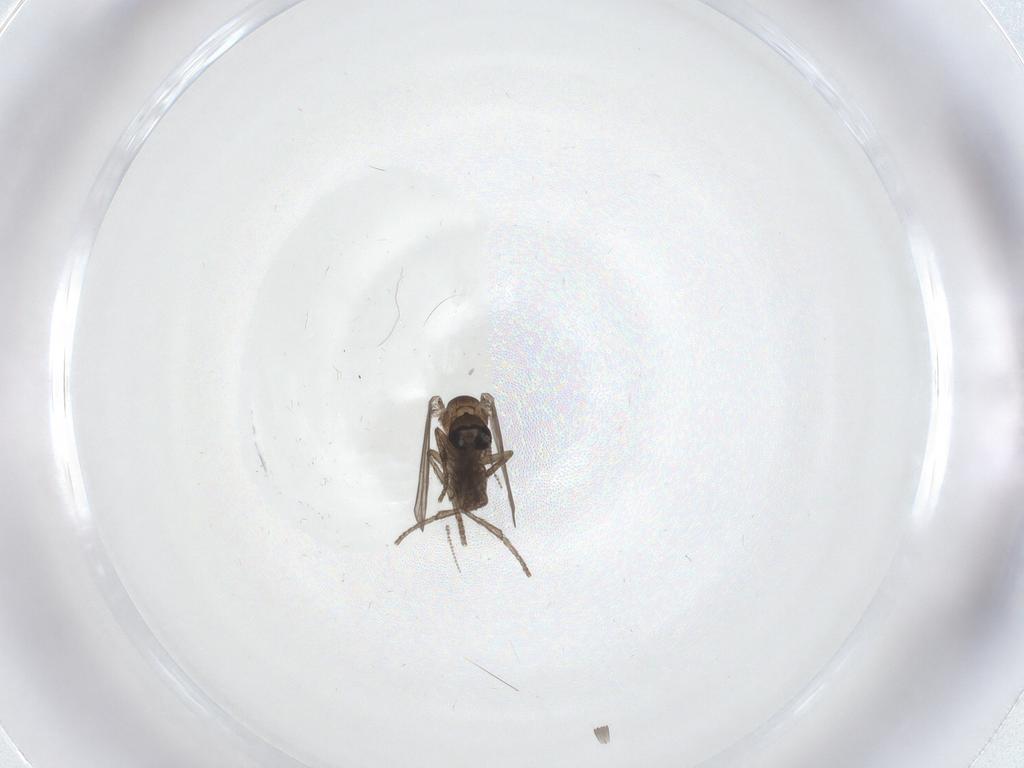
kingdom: Animalia
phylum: Arthropoda
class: Insecta
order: Diptera
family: Psychodidae
